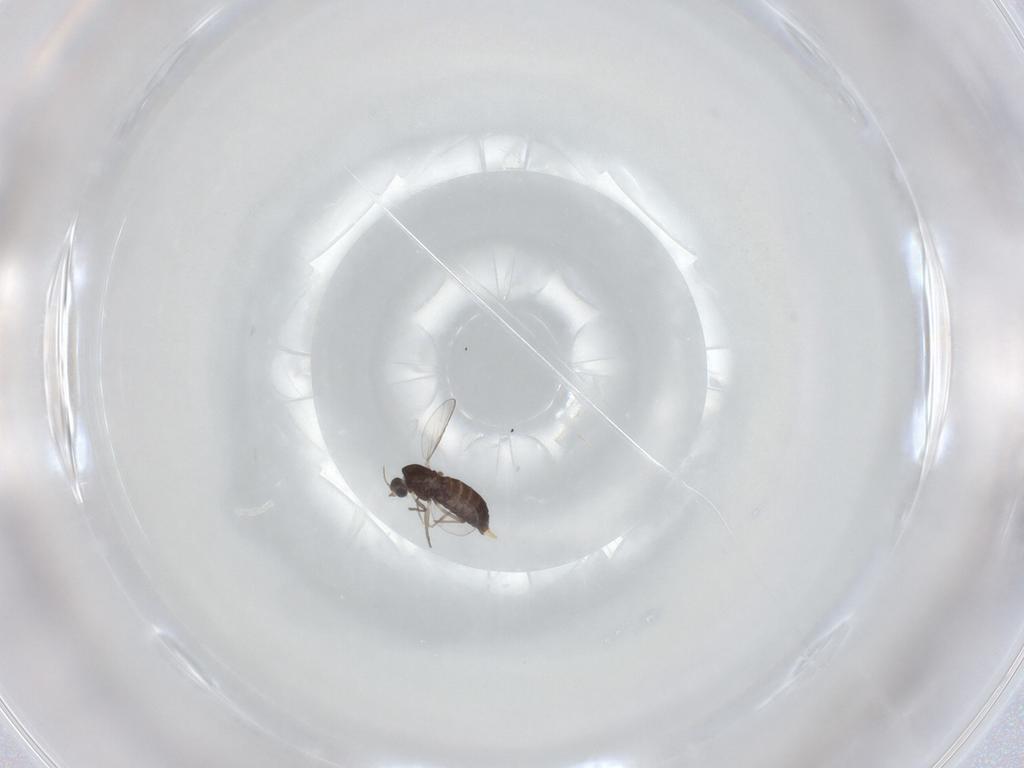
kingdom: Animalia
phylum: Arthropoda
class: Insecta
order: Diptera
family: Chironomidae
